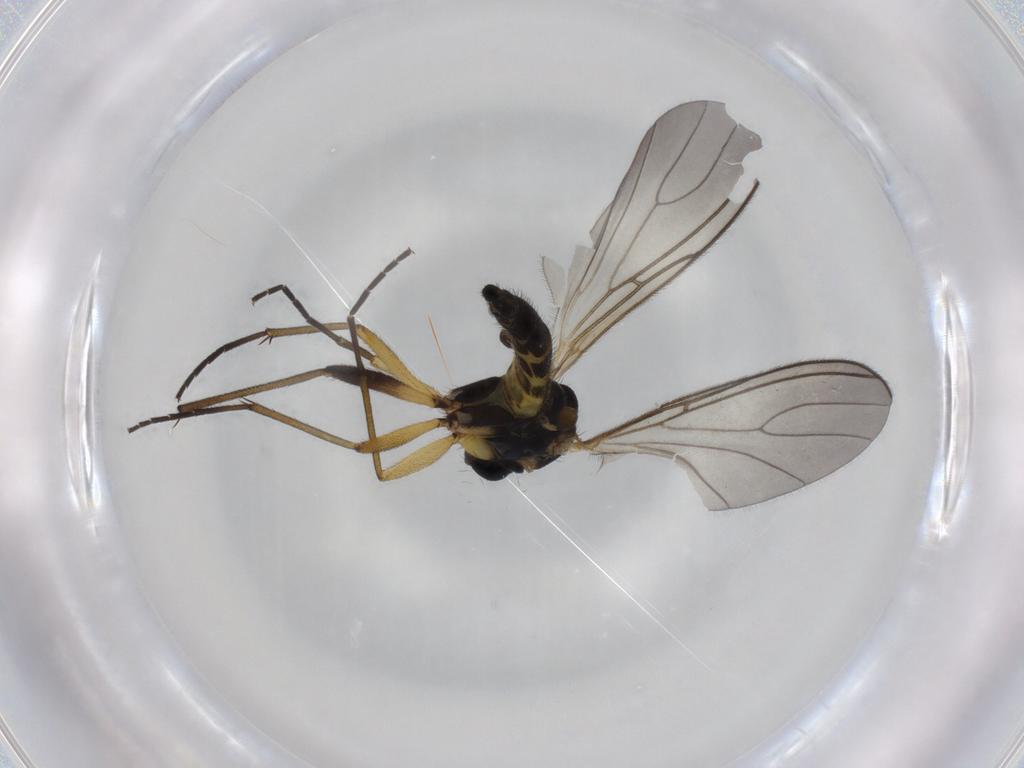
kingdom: Animalia
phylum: Arthropoda
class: Insecta
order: Diptera
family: Sciaridae
